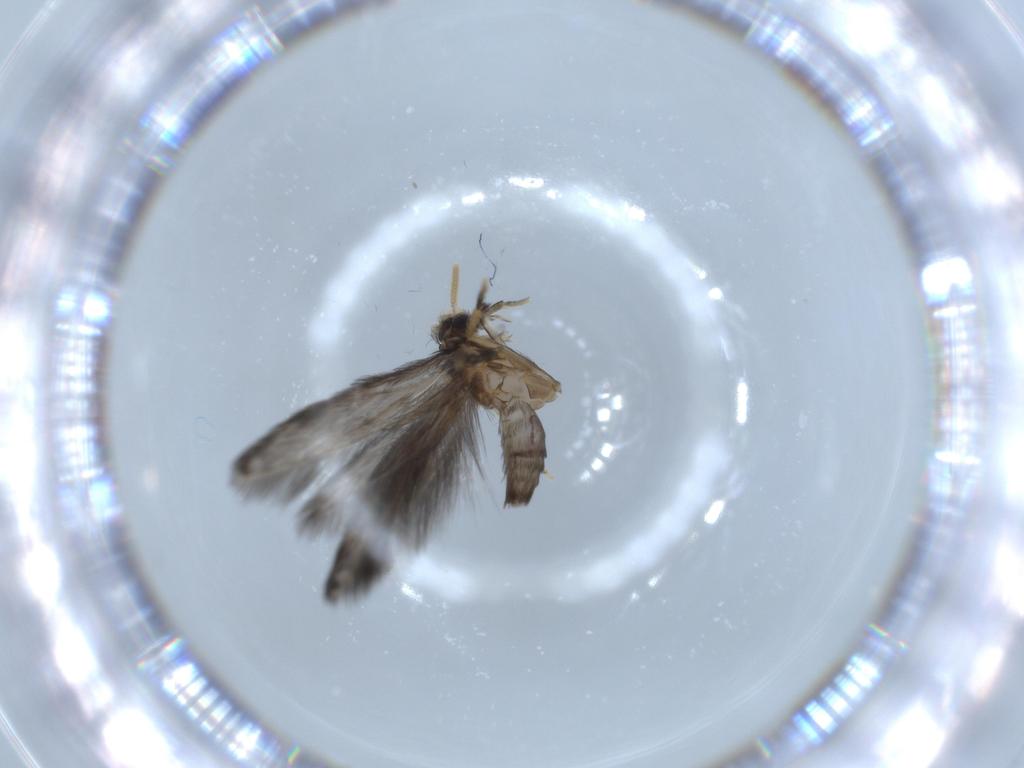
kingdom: Animalia
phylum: Arthropoda
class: Insecta
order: Trichoptera
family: Hydroptilidae
